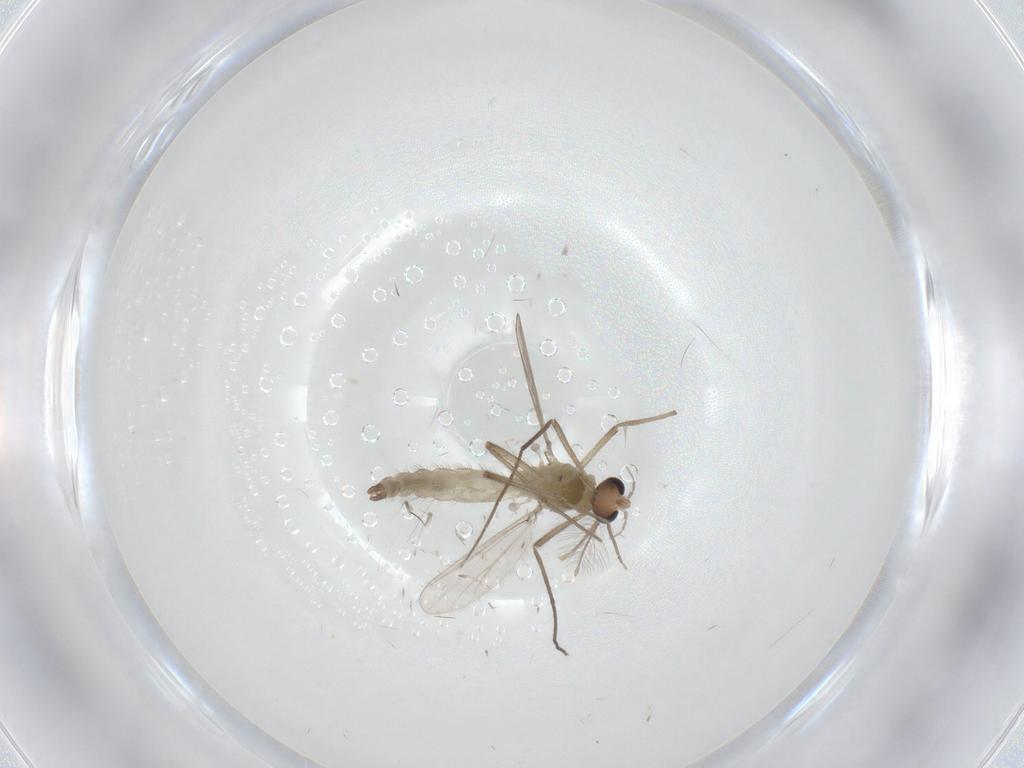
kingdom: Animalia
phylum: Arthropoda
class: Insecta
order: Diptera
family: Chironomidae
